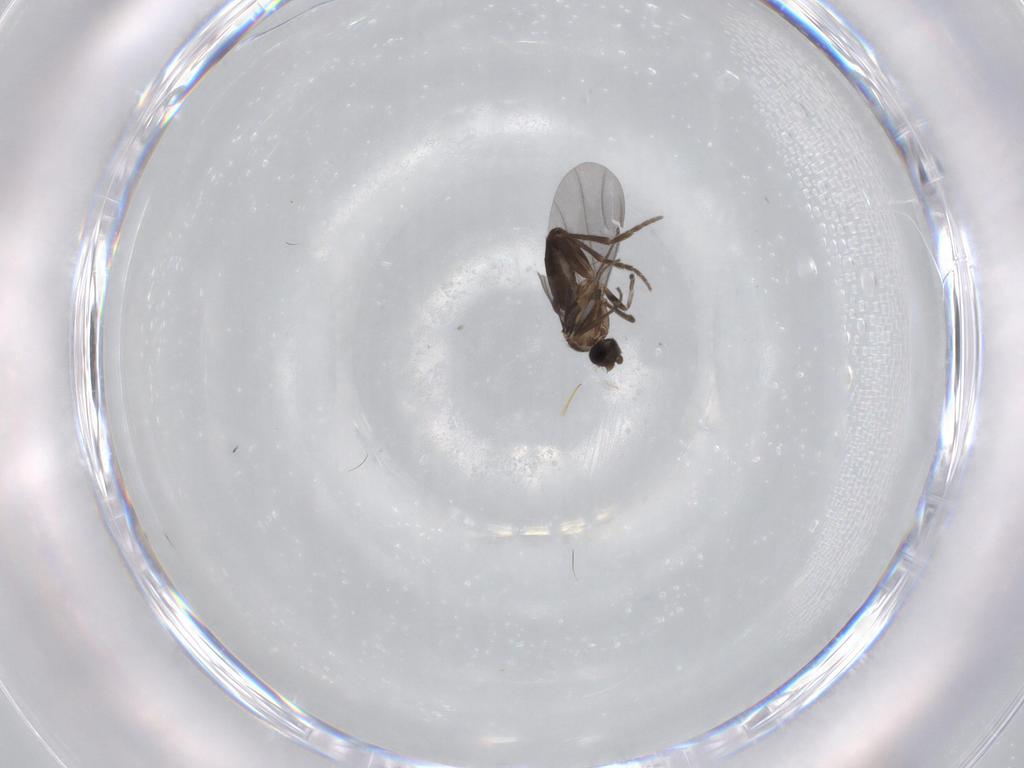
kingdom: Animalia
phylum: Arthropoda
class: Insecta
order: Diptera
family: Phoridae
